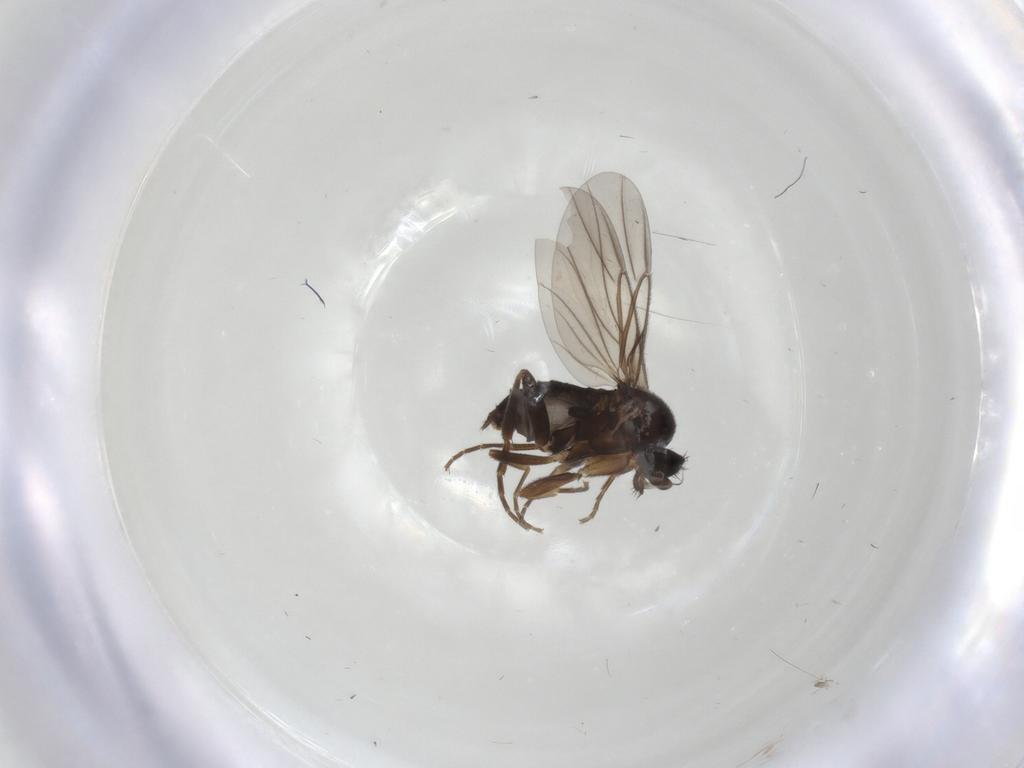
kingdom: Animalia
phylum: Arthropoda
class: Insecta
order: Diptera
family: Phoridae
